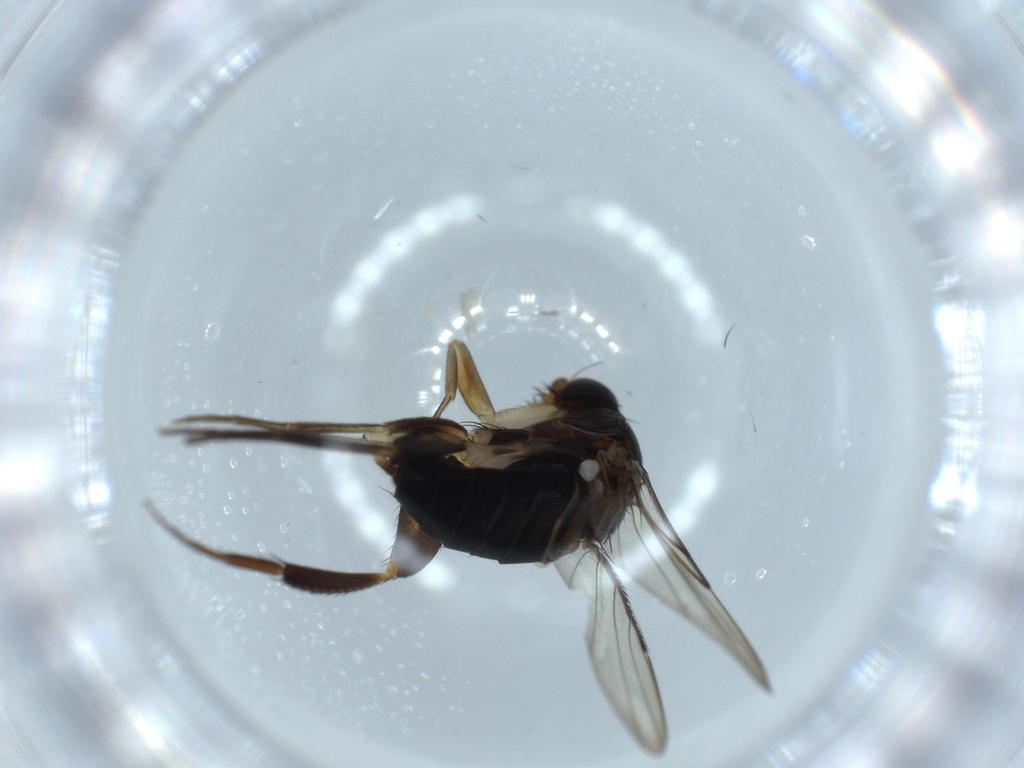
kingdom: Animalia
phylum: Arthropoda
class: Insecta
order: Diptera
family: Phoridae
